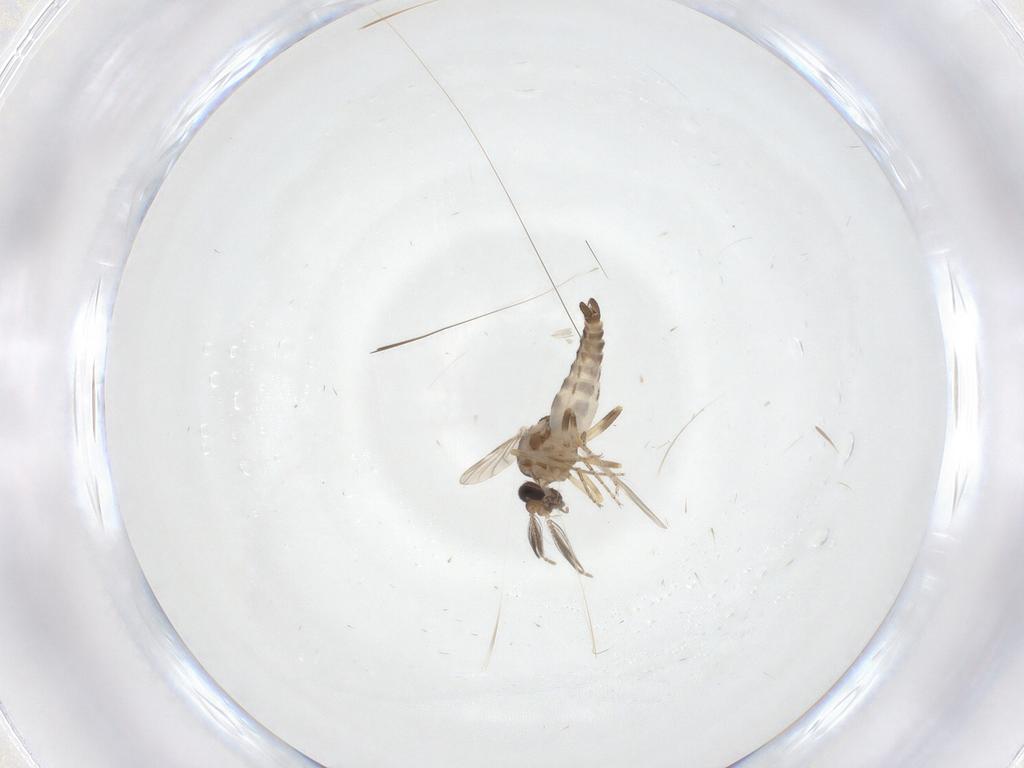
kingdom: Animalia
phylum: Arthropoda
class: Insecta
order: Diptera
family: Ceratopogonidae
